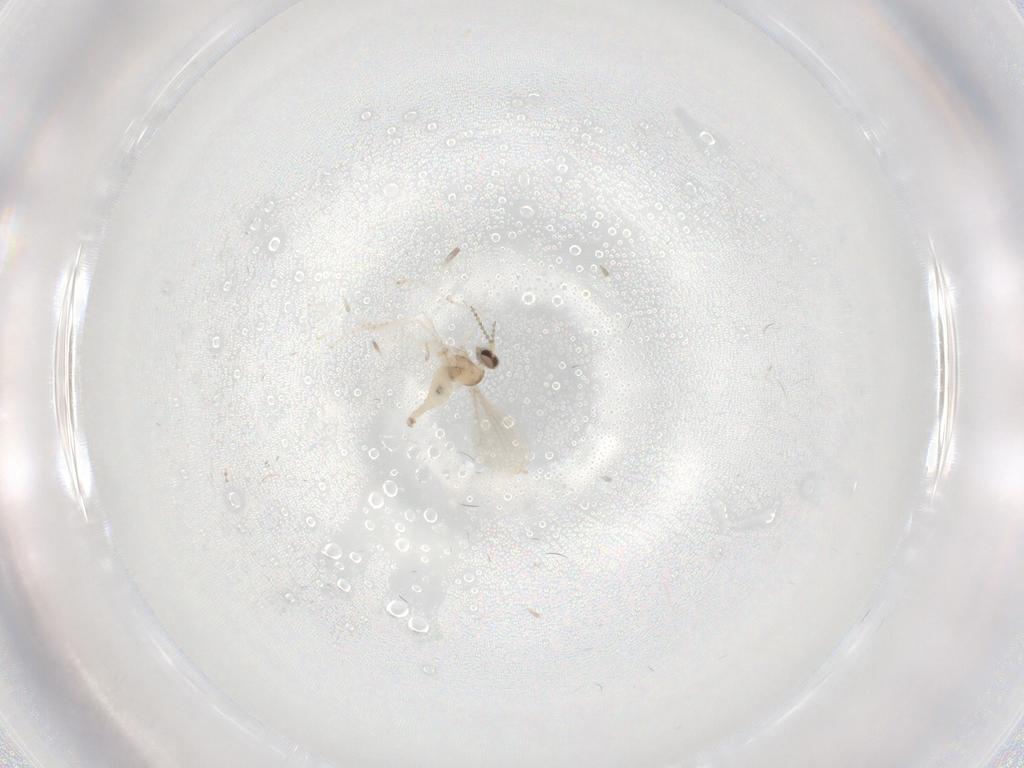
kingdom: Animalia
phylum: Arthropoda
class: Insecta
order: Diptera
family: Cecidomyiidae
